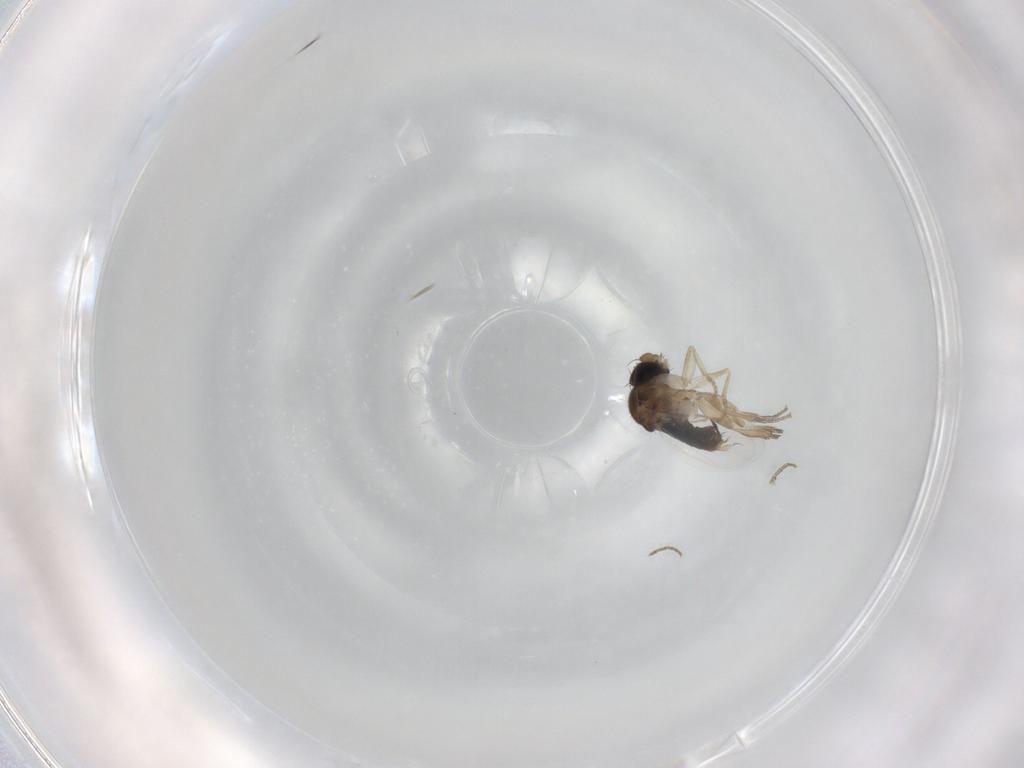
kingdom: Animalia
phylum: Arthropoda
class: Insecta
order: Diptera
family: Phoridae
